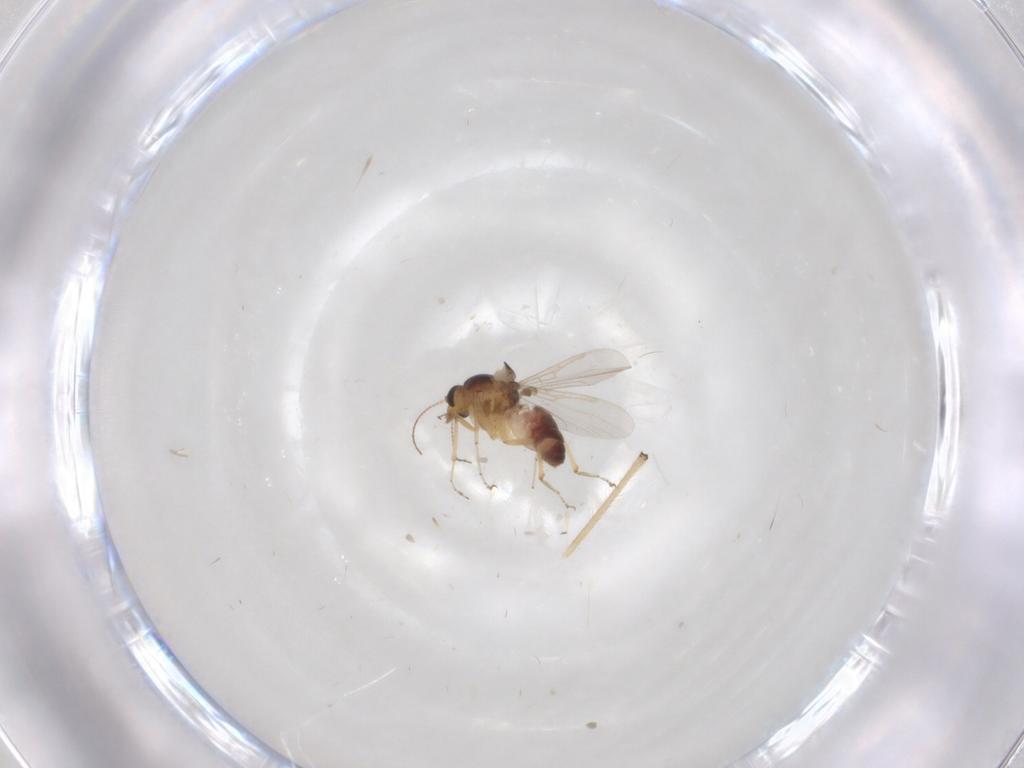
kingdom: Animalia
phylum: Arthropoda
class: Insecta
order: Diptera
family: Ceratopogonidae
